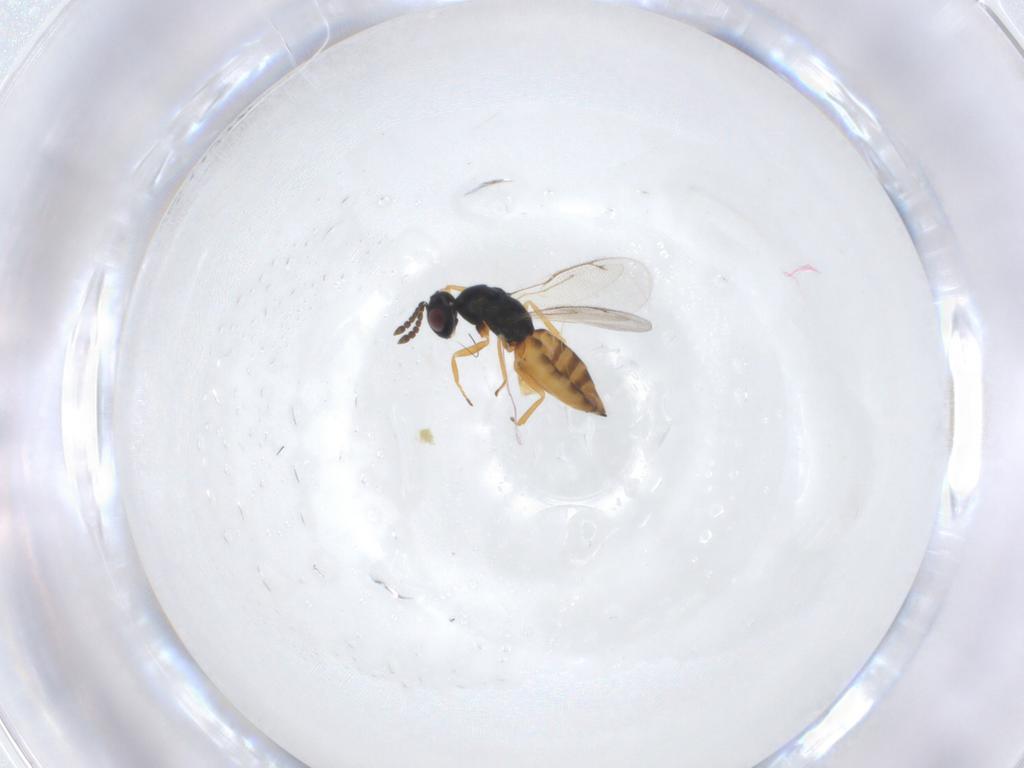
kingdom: Animalia
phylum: Arthropoda
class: Insecta
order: Hymenoptera
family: Eulophidae
